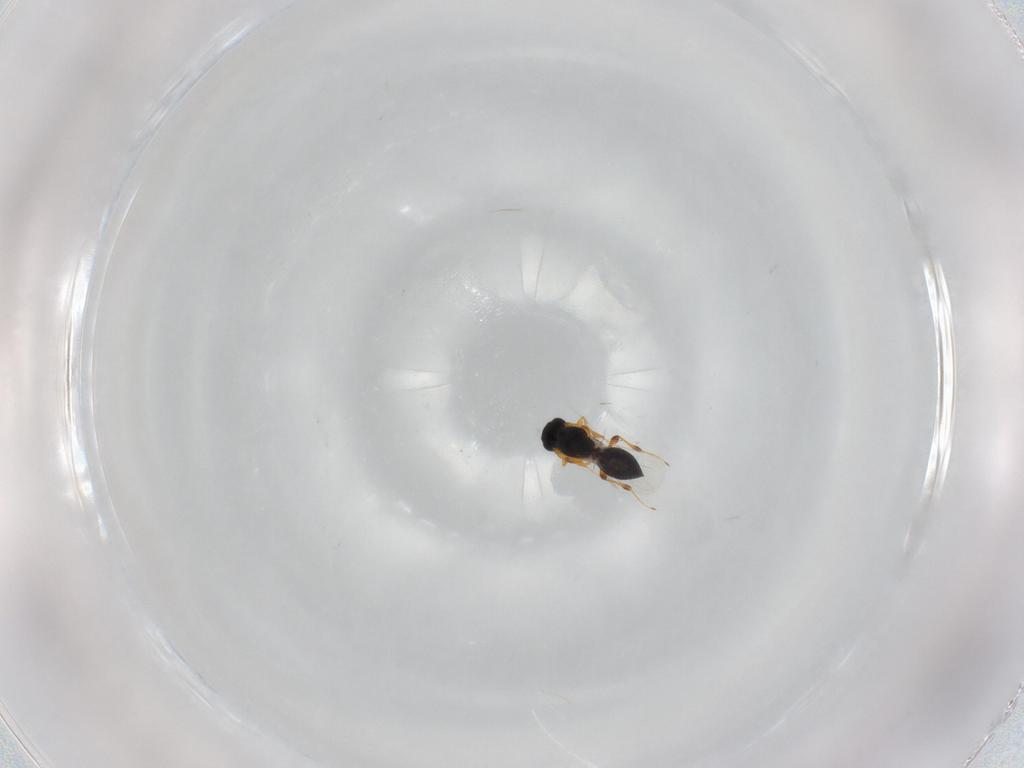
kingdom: Animalia
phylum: Arthropoda
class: Insecta
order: Hymenoptera
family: Platygastridae
